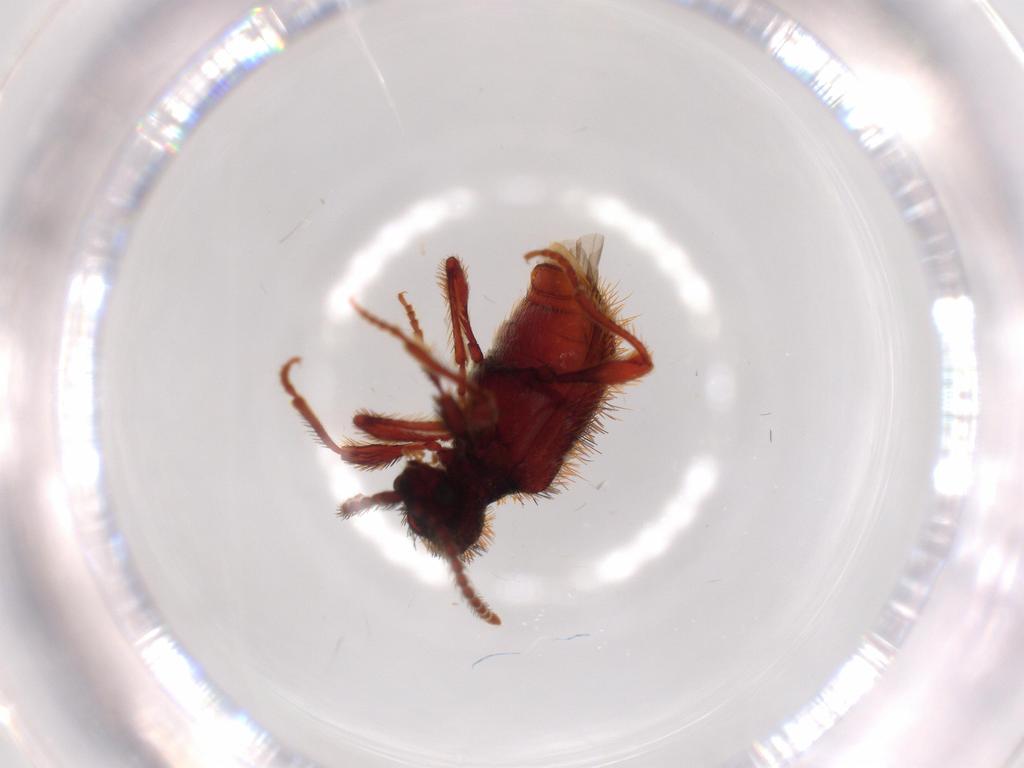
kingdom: Animalia
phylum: Arthropoda
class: Insecta
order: Coleoptera
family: Ptinidae
